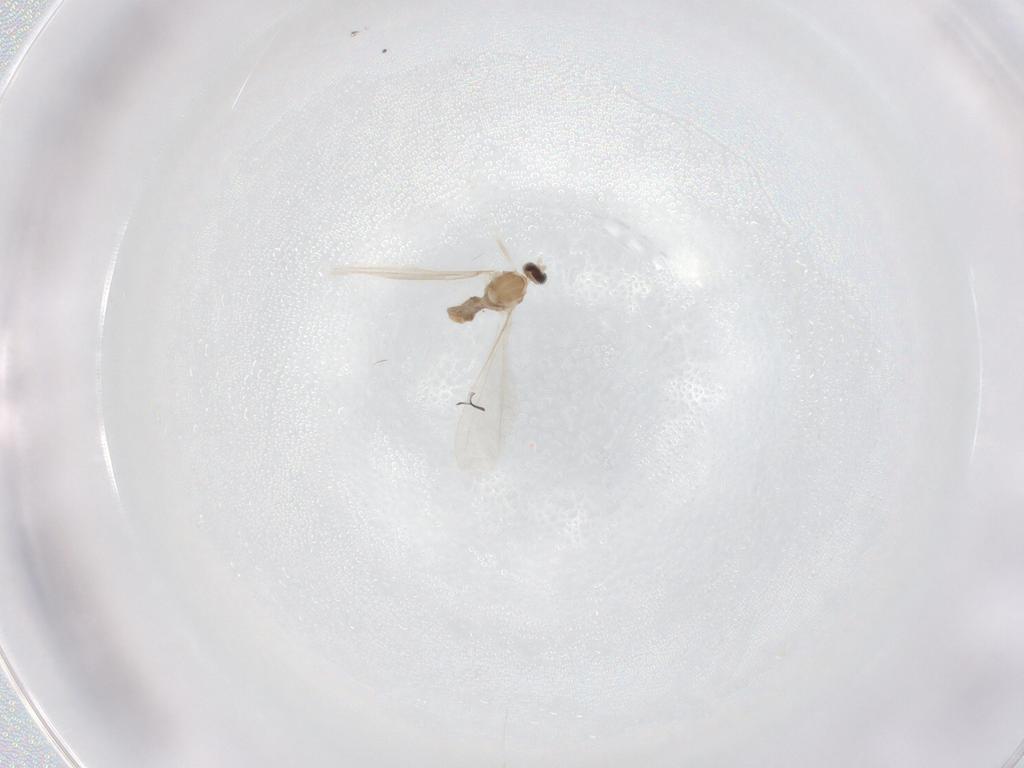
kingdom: Animalia
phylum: Arthropoda
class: Insecta
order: Diptera
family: Cecidomyiidae
